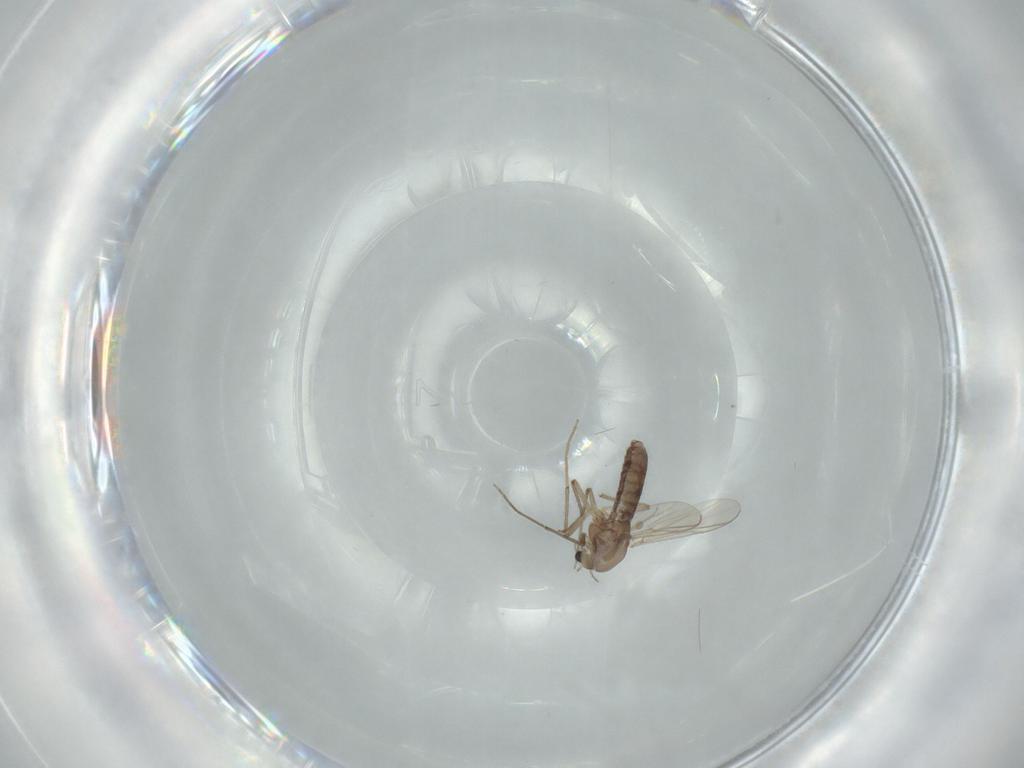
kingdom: Animalia
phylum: Arthropoda
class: Insecta
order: Diptera
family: Chironomidae
